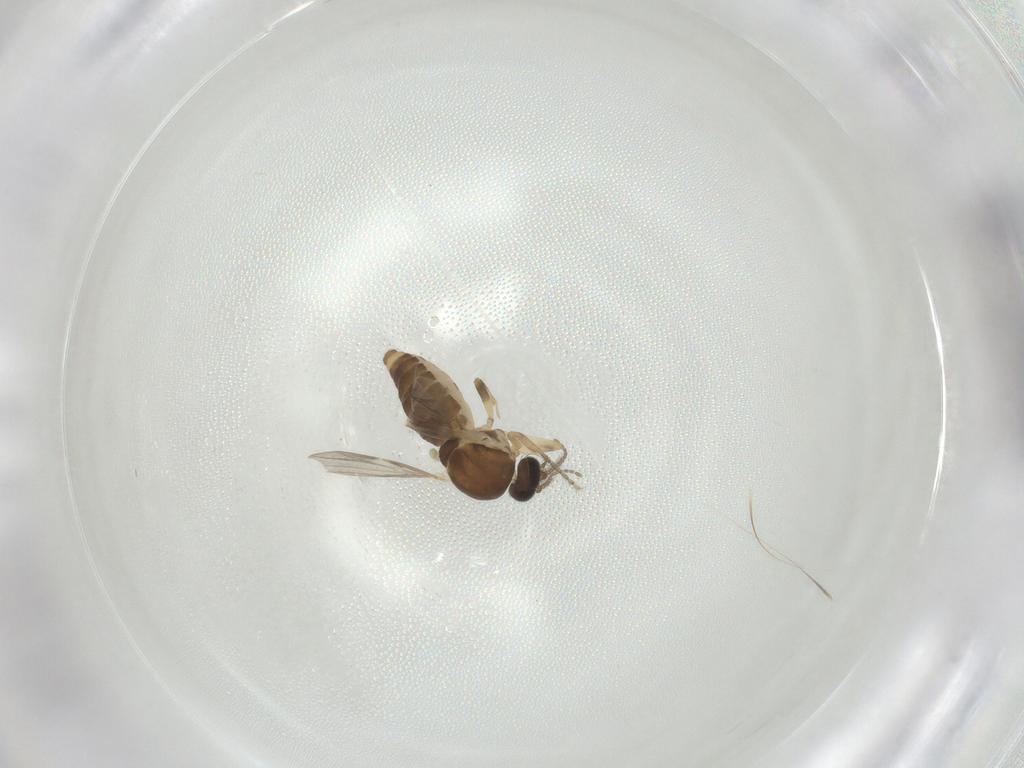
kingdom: Animalia
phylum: Arthropoda
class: Insecta
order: Diptera
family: Ceratopogonidae
